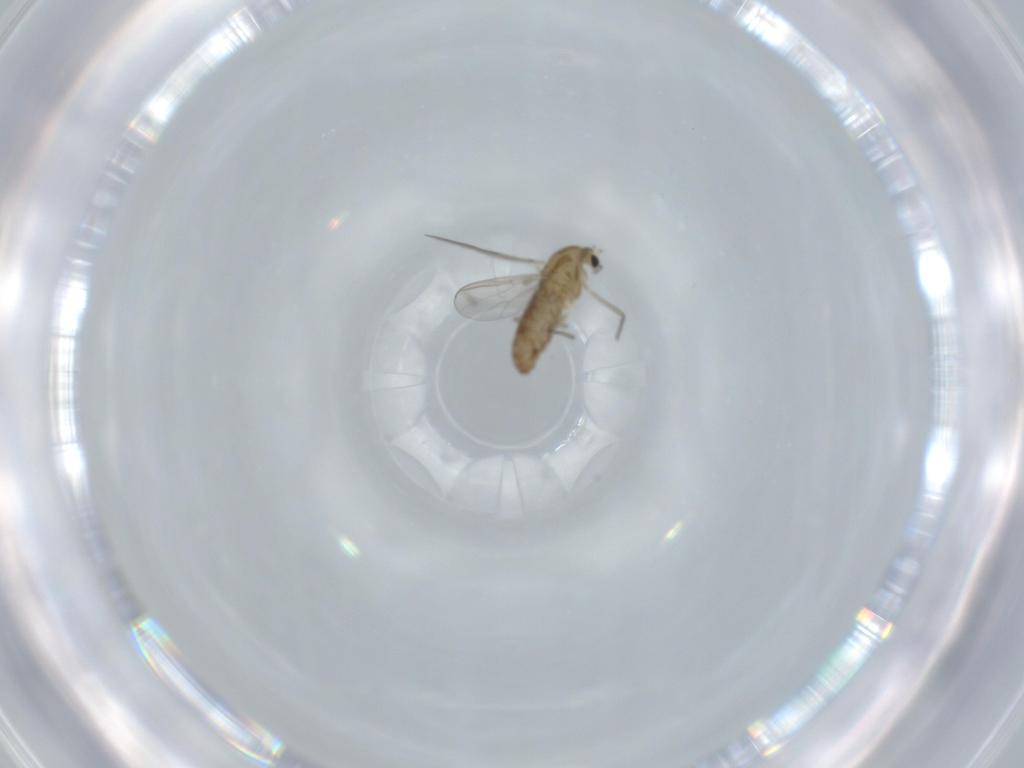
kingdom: Animalia
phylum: Arthropoda
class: Insecta
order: Diptera
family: Chironomidae
